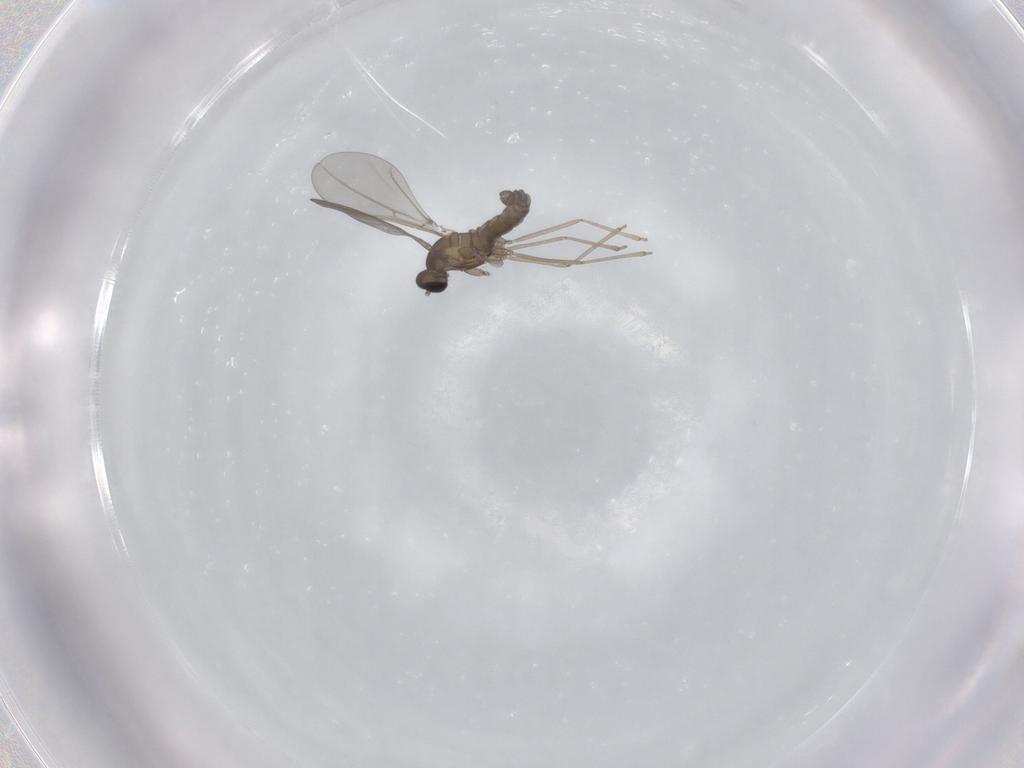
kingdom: Animalia
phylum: Arthropoda
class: Insecta
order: Diptera
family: Cecidomyiidae
